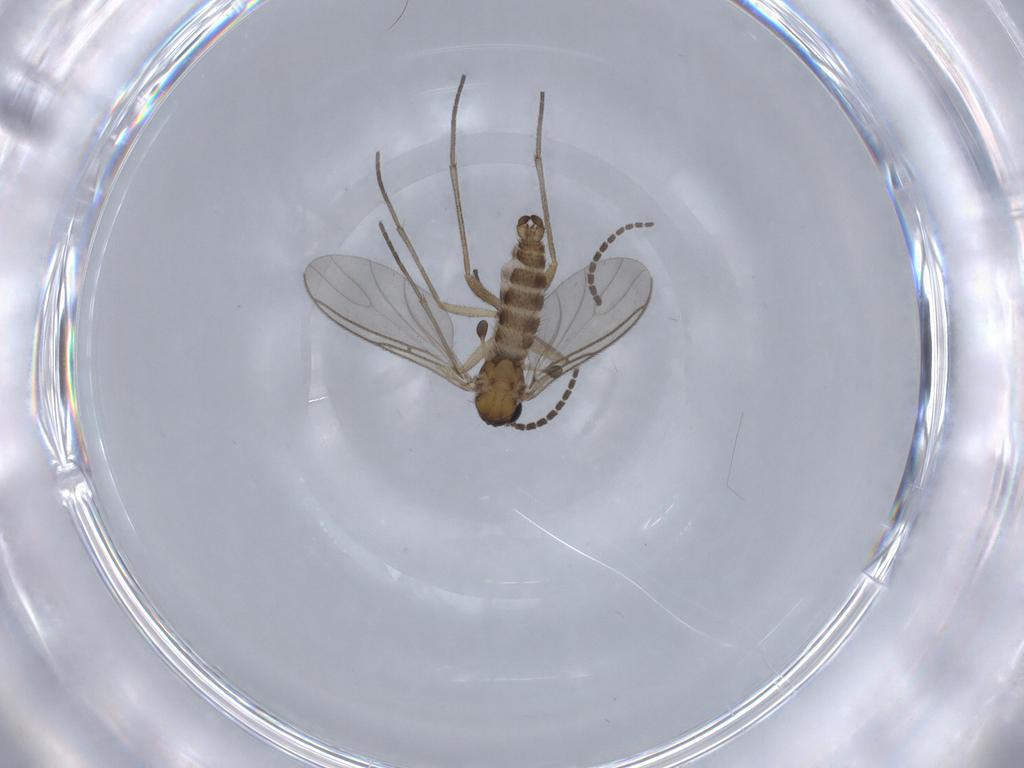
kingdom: Animalia
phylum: Arthropoda
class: Insecta
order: Diptera
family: Sciaridae
